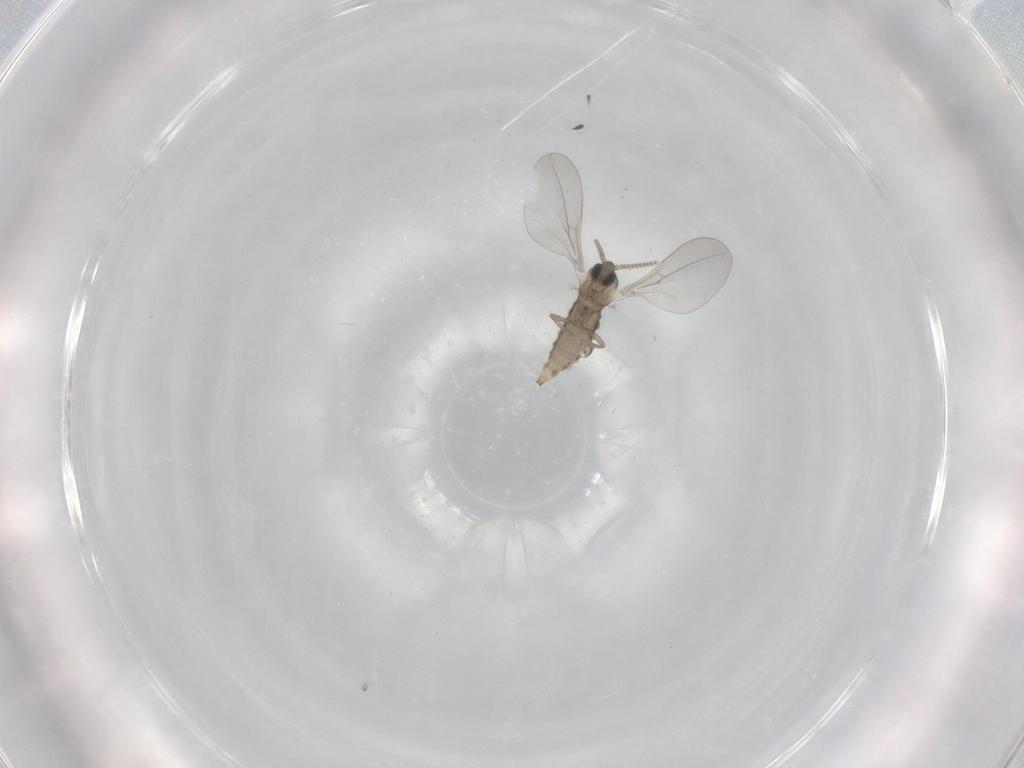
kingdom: Animalia
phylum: Arthropoda
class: Insecta
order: Diptera
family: Cecidomyiidae
